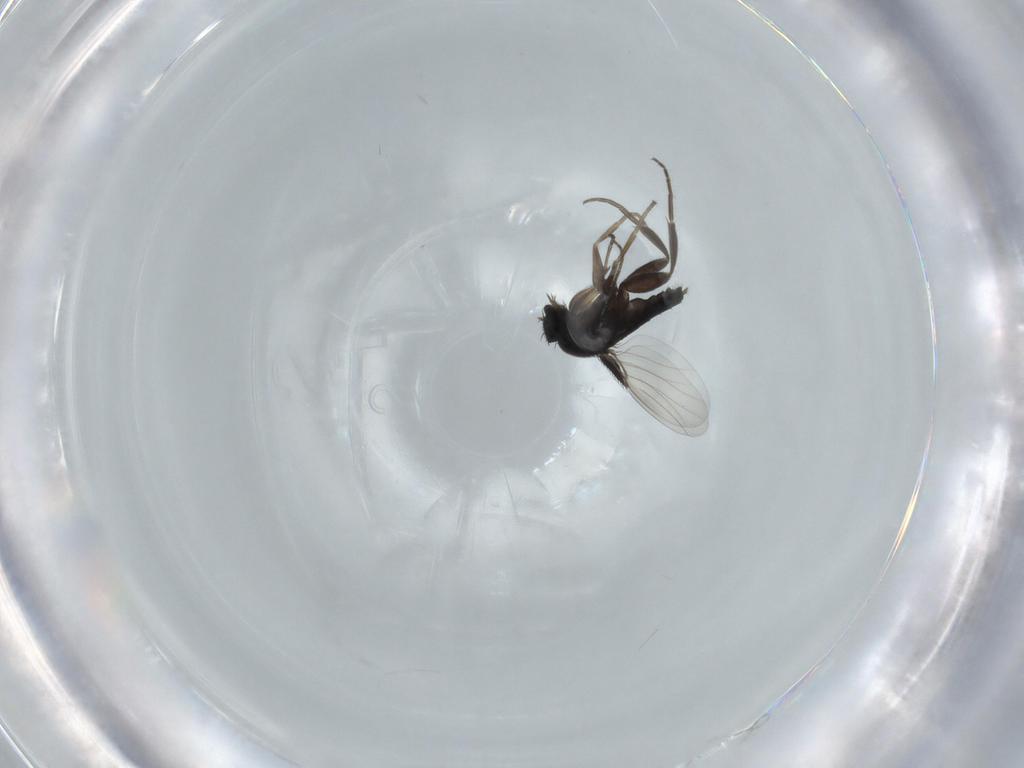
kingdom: Animalia
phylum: Arthropoda
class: Insecta
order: Diptera
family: Phoridae
